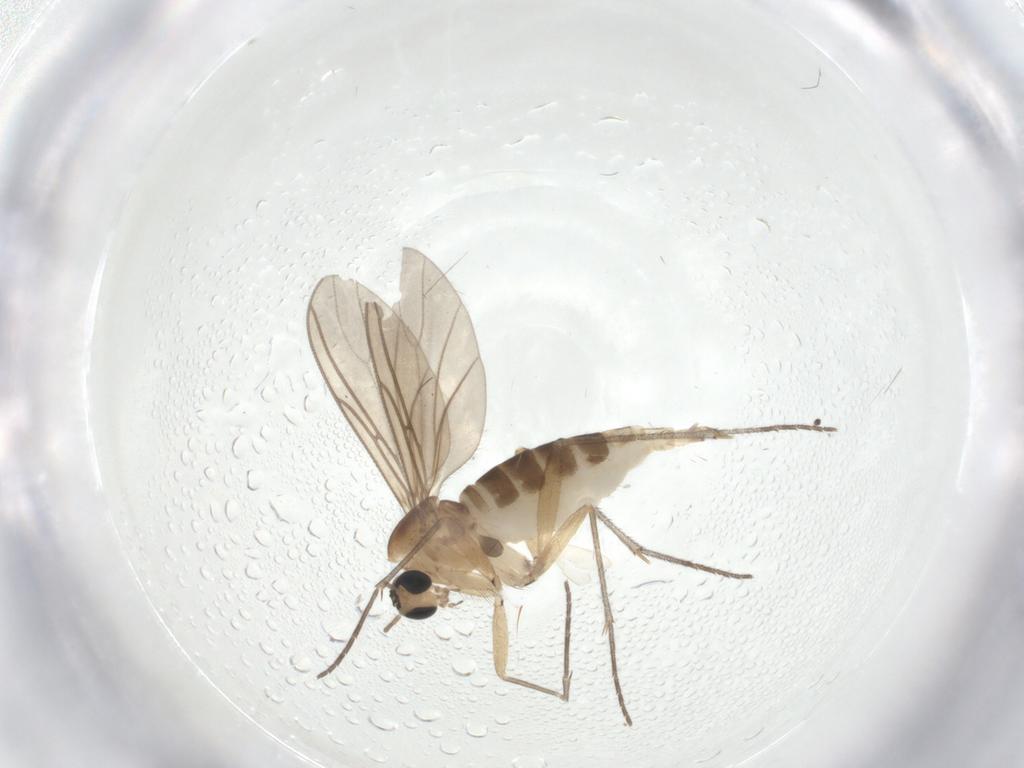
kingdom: Animalia
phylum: Arthropoda
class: Insecta
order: Diptera
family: Sciaridae
